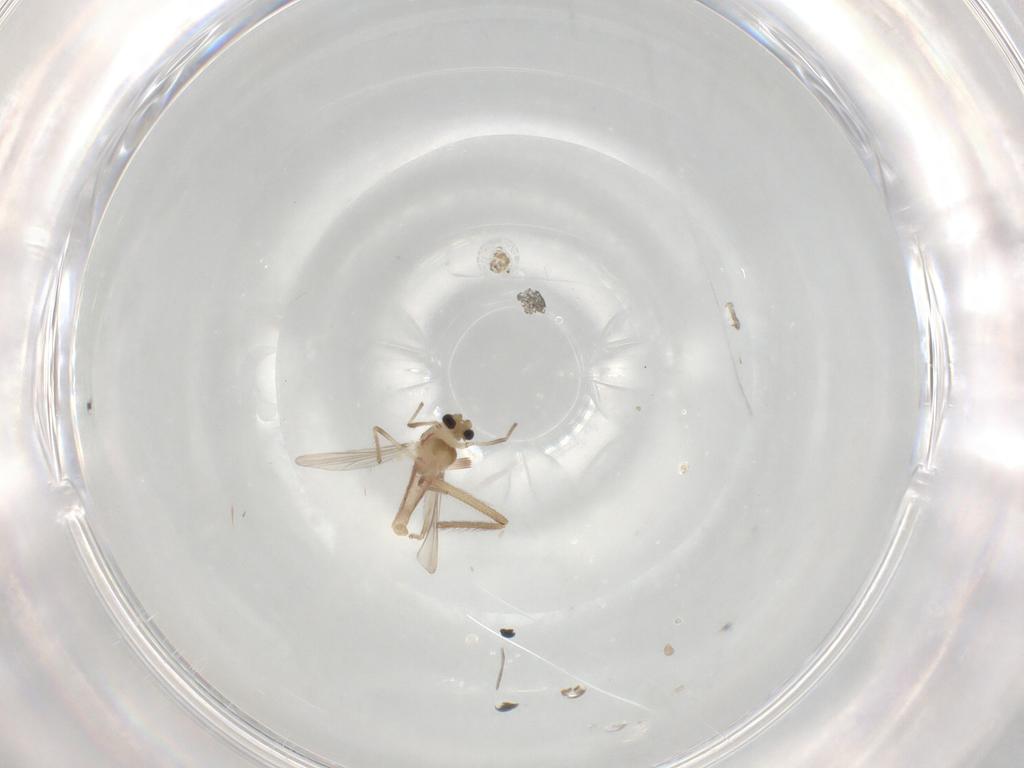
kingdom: Animalia
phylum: Arthropoda
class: Insecta
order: Diptera
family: Chironomidae
